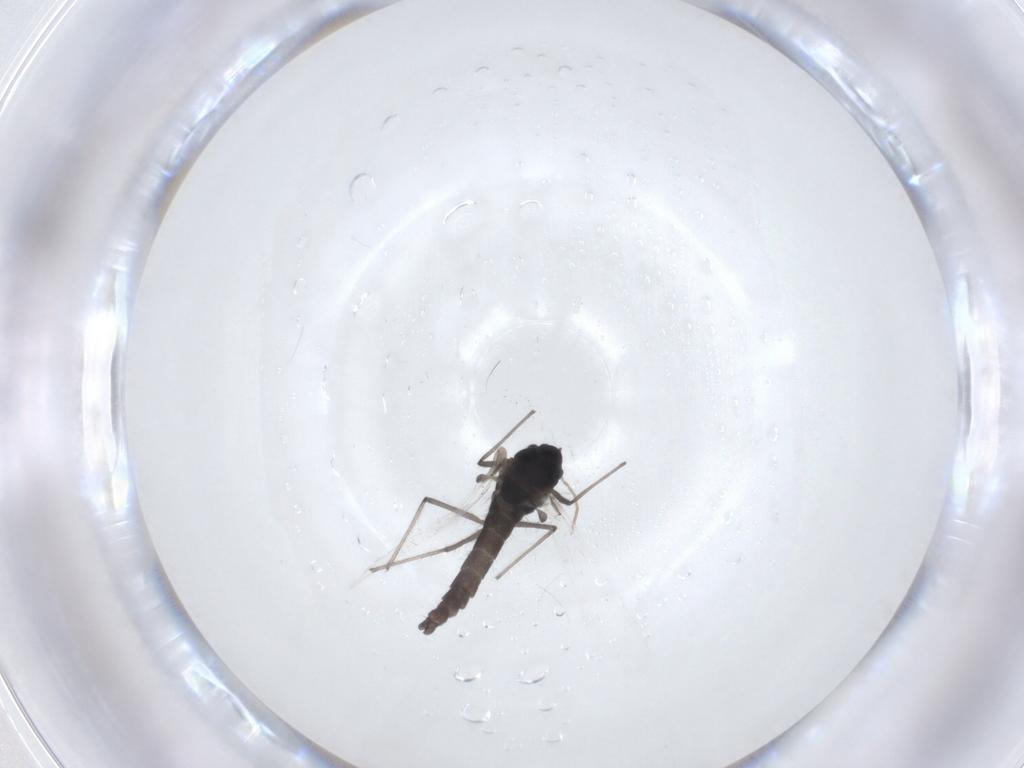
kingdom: Animalia
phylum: Arthropoda
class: Insecta
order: Diptera
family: Cecidomyiidae
